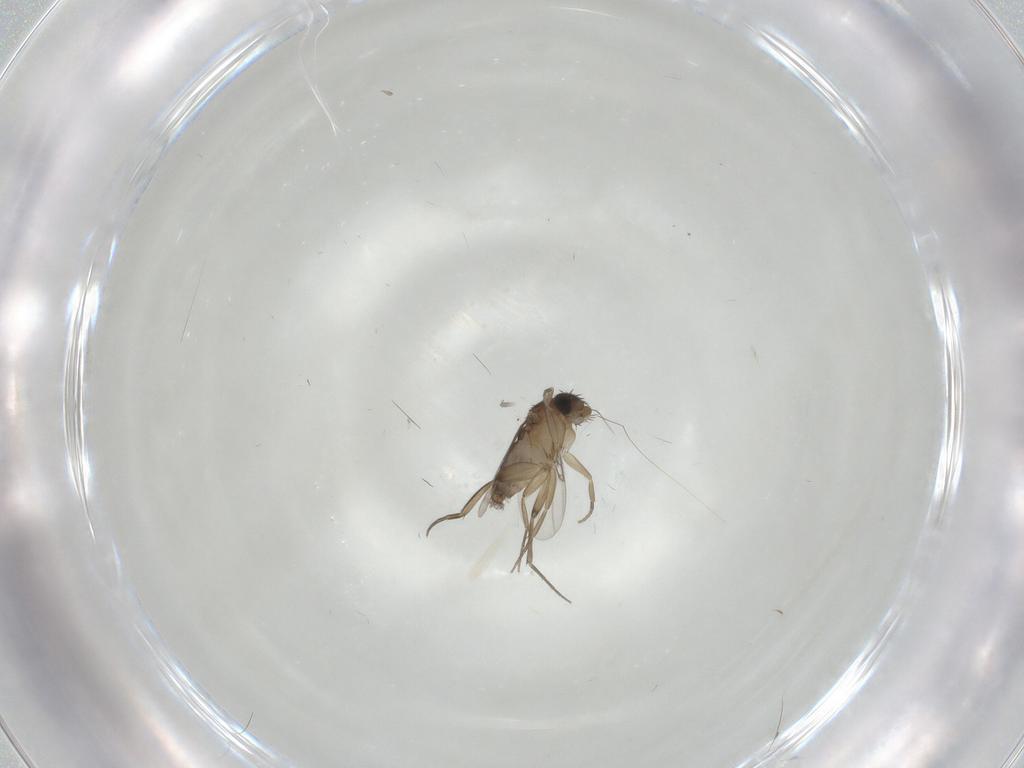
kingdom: Animalia
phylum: Arthropoda
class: Insecta
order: Diptera
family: Phoridae
